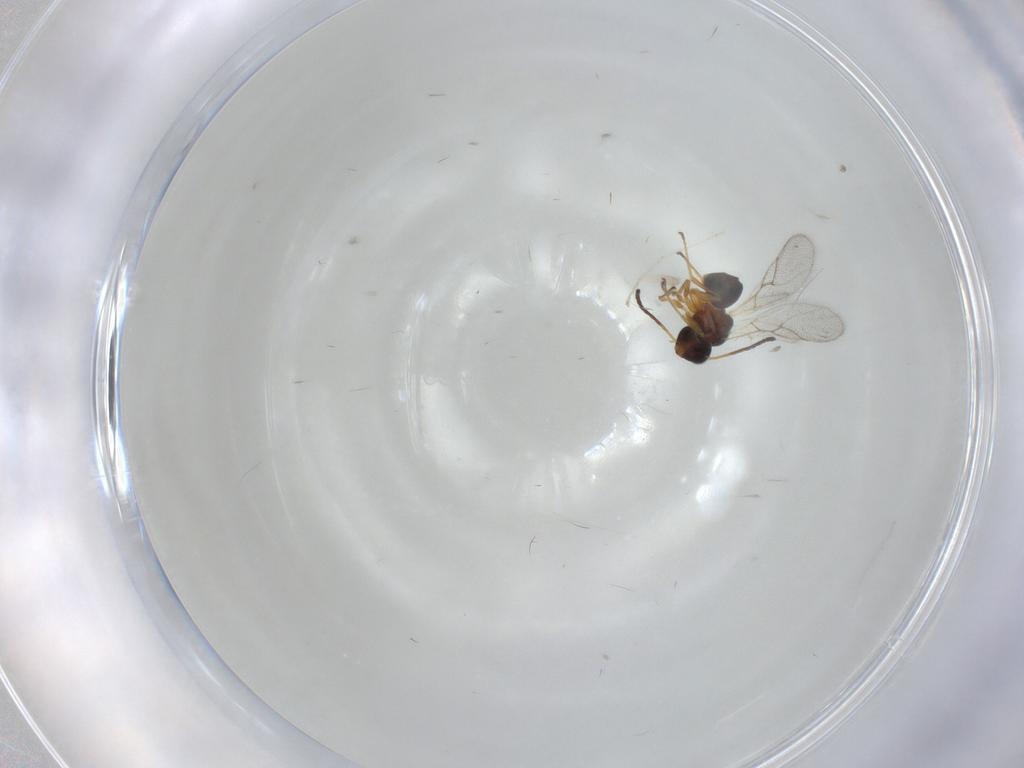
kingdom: Animalia
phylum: Arthropoda
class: Insecta
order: Hymenoptera
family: Figitidae
